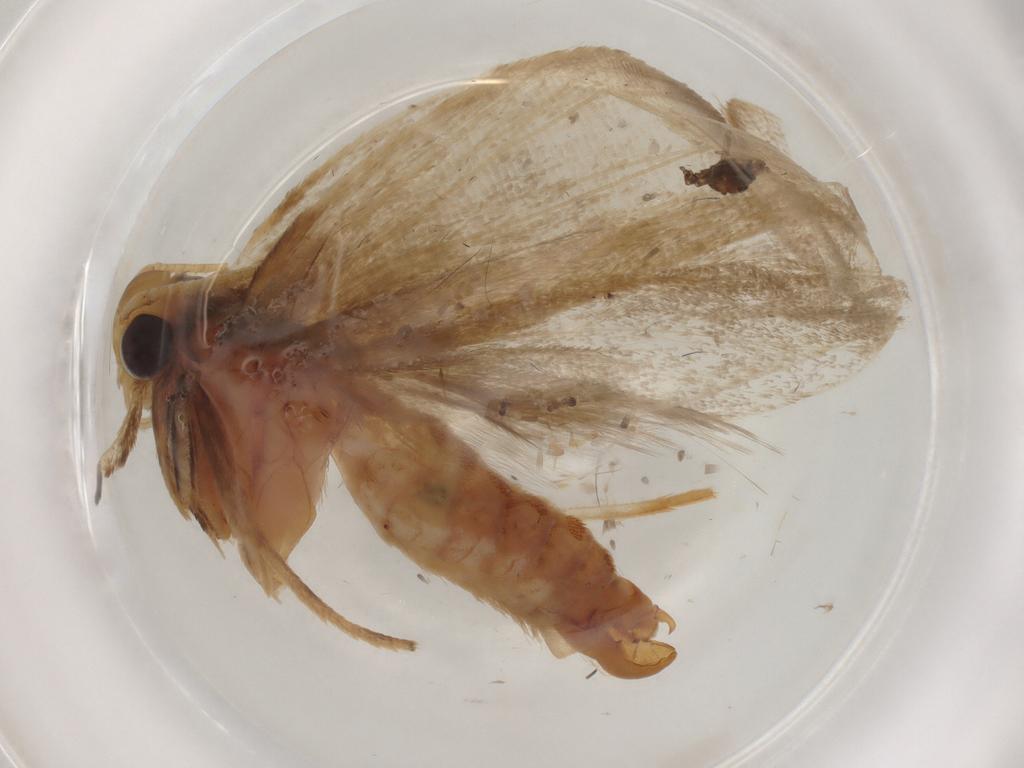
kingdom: Animalia
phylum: Arthropoda
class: Insecta
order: Lepidoptera
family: Lecithoceridae
